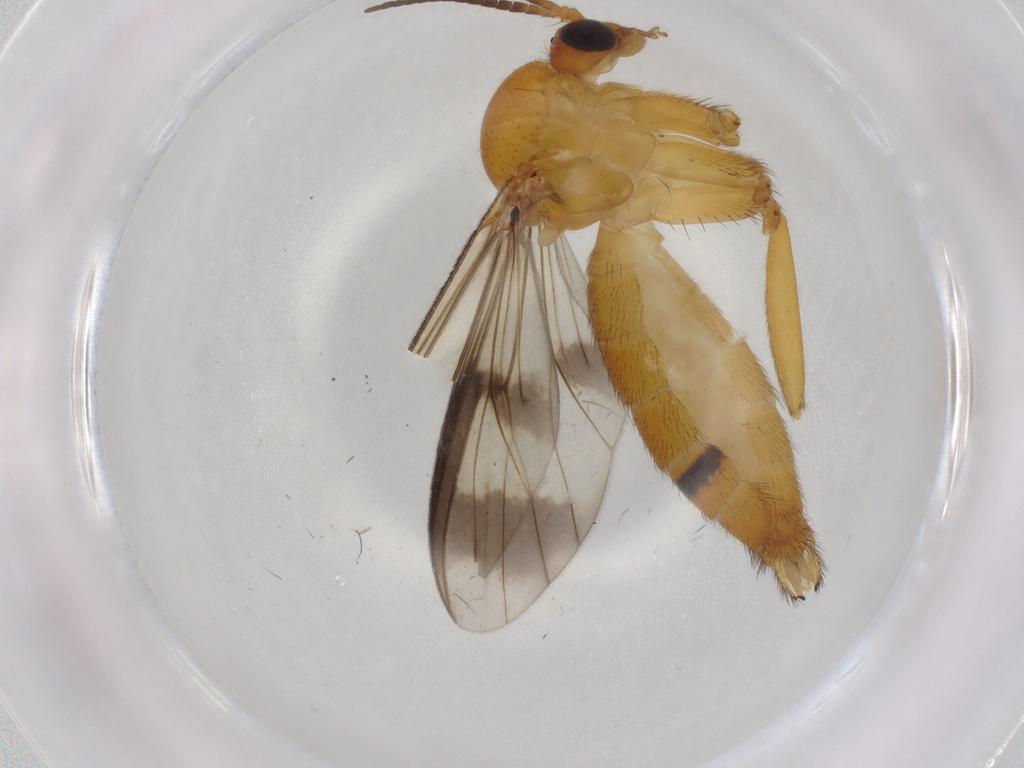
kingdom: Animalia
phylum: Arthropoda
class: Insecta
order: Diptera
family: Mycetophilidae
